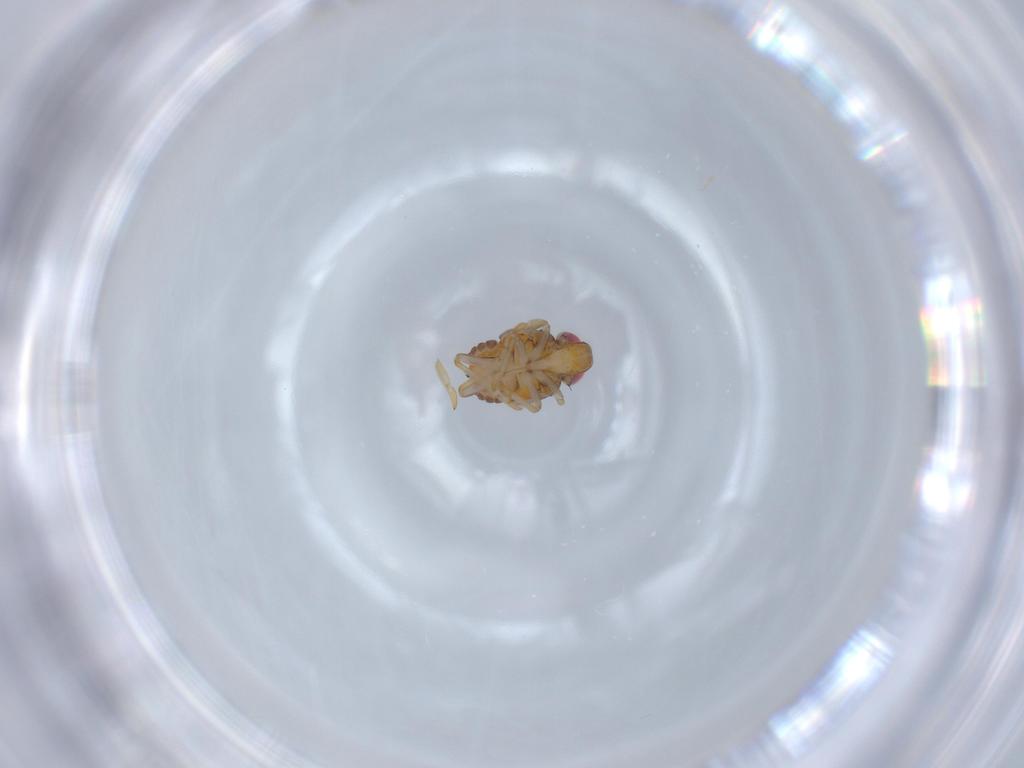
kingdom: Animalia
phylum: Arthropoda
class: Insecta
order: Hemiptera
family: Issidae
